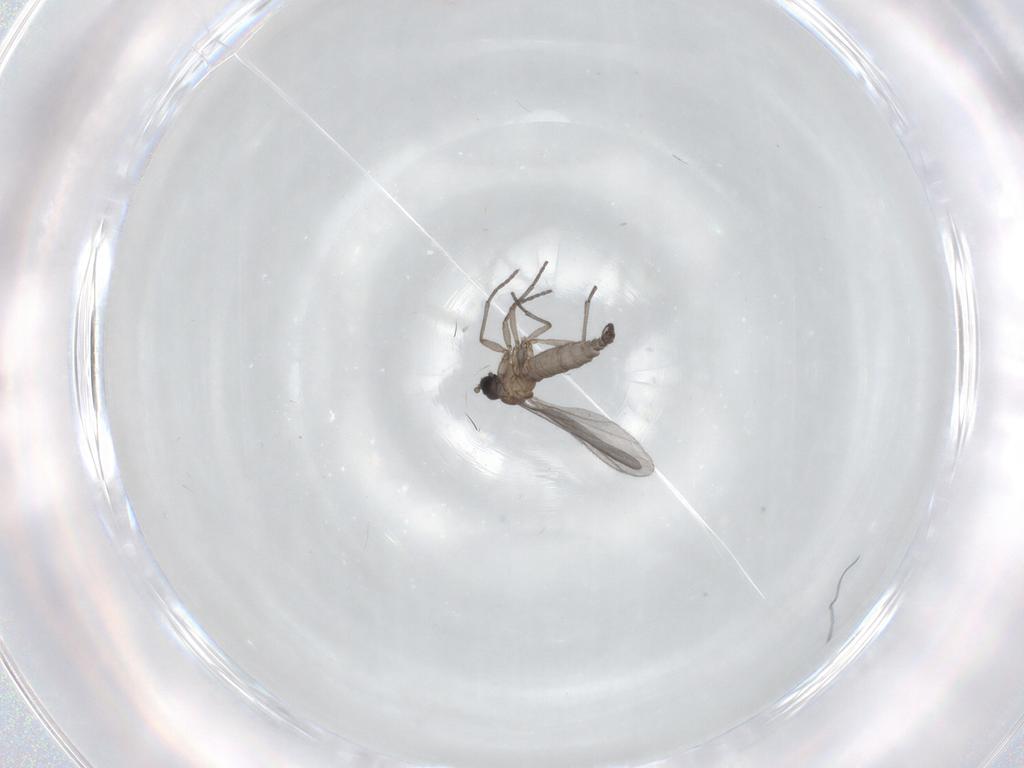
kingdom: Animalia
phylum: Arthropoda
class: Insecta
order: Diptera
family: Sciaridae
